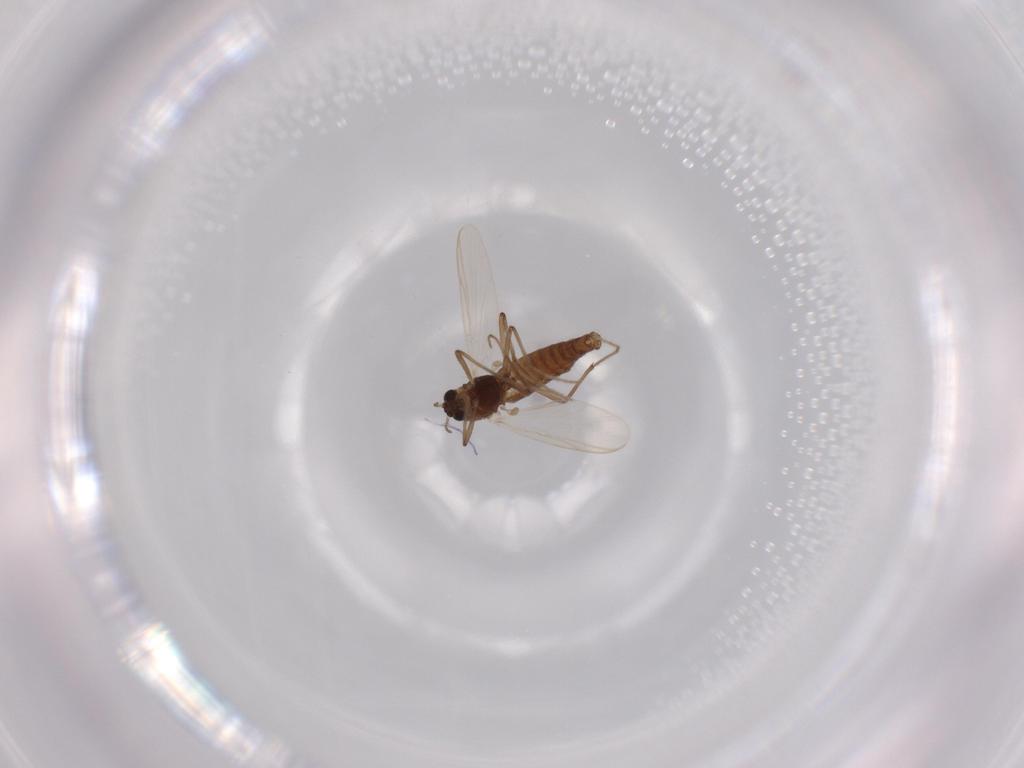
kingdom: Animalia
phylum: Arthropoda
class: Insecta
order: Diptera
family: Chironomidae
